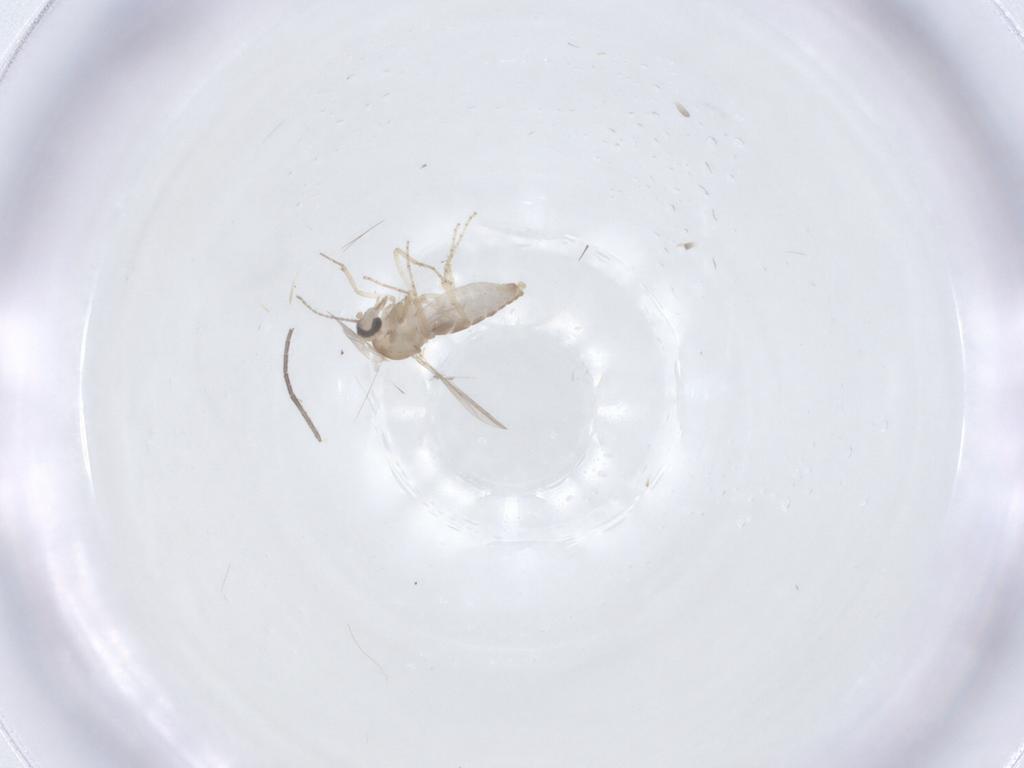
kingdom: Animalia
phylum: Arthropoda
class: Insecta
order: Diptera
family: Ceratopogonidae
